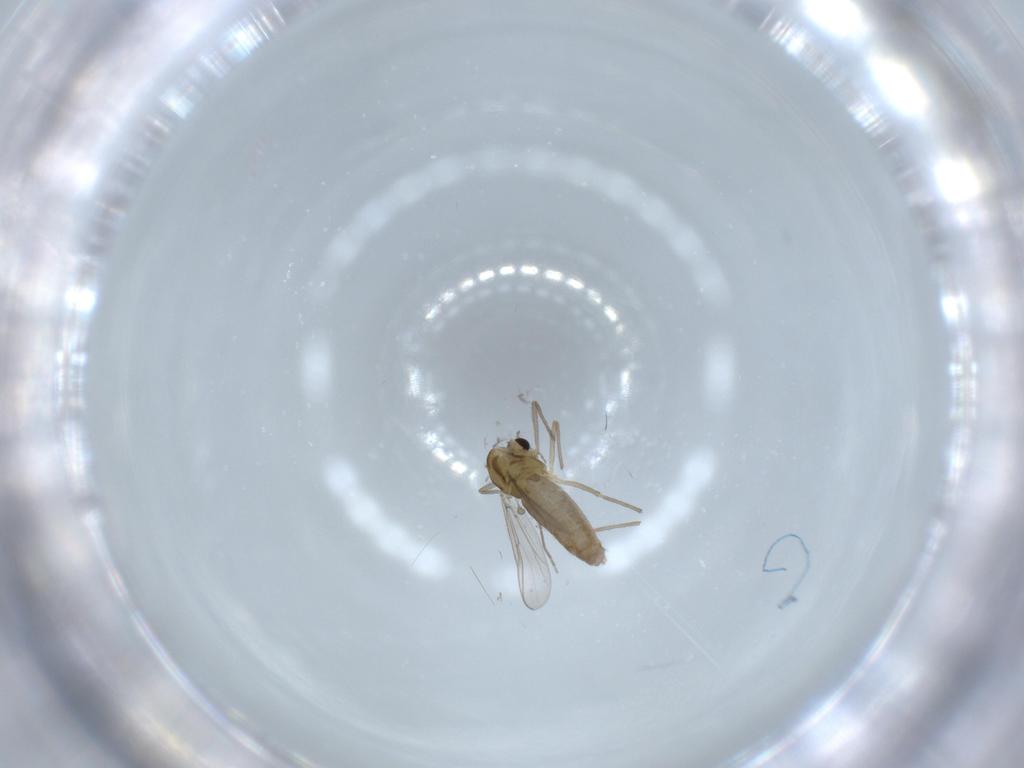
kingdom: Animalia
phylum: Arthropoda
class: Insecta
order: Diptera
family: Chironomidae
